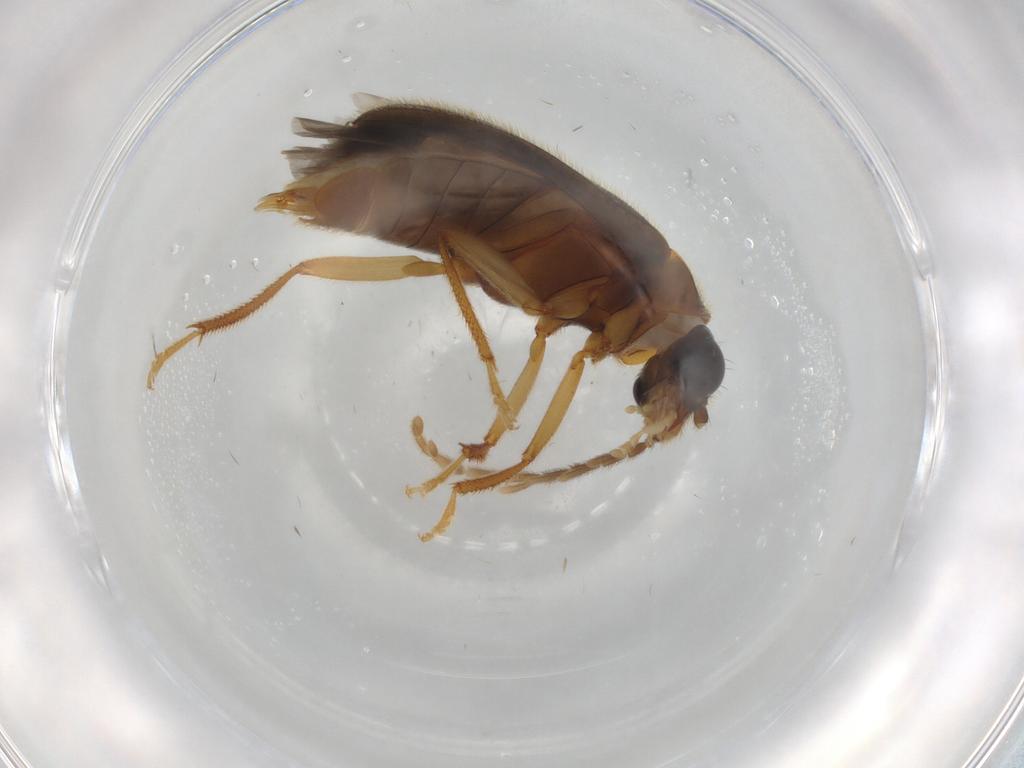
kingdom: Animalia
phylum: Arthropoda
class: Insecta
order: Coleoptera
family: Ptilodactylidae
